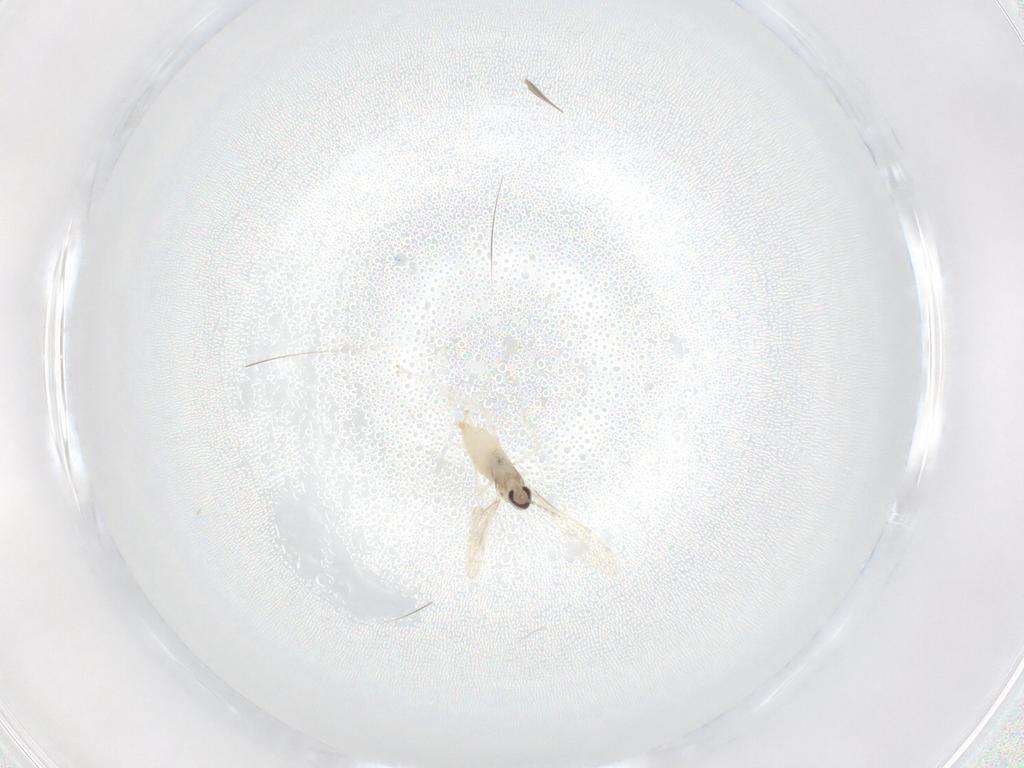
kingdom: Animalia
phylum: Arthropoda
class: Insecta
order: Diptera
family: Cecidomyiidae
